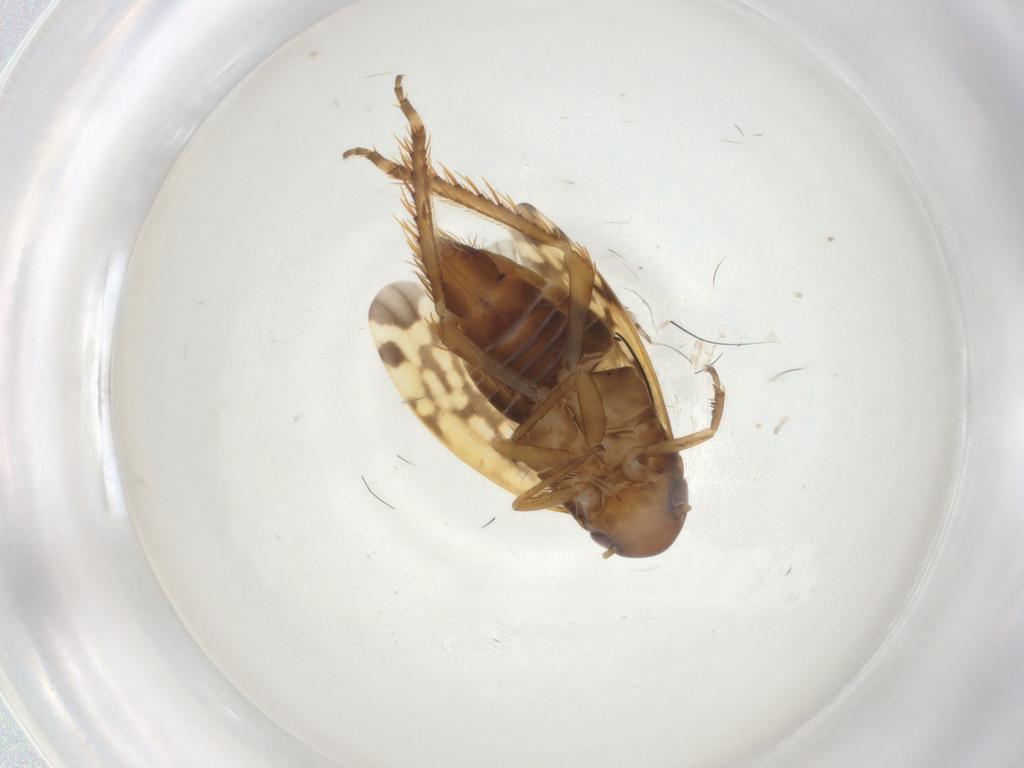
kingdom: Animalia
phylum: Arthropoda
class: Insecta
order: Hemiptera
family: Cicadellidae
